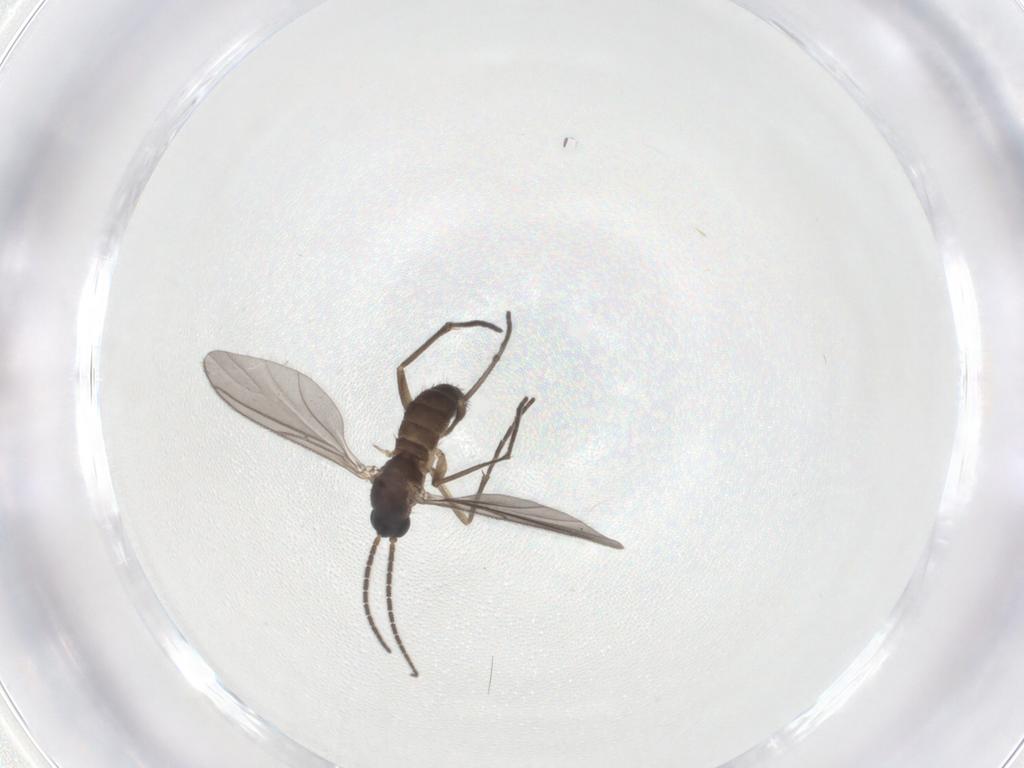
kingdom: Animalia
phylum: Arthropoda
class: Insecta
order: Diptera
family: Sciaridae
